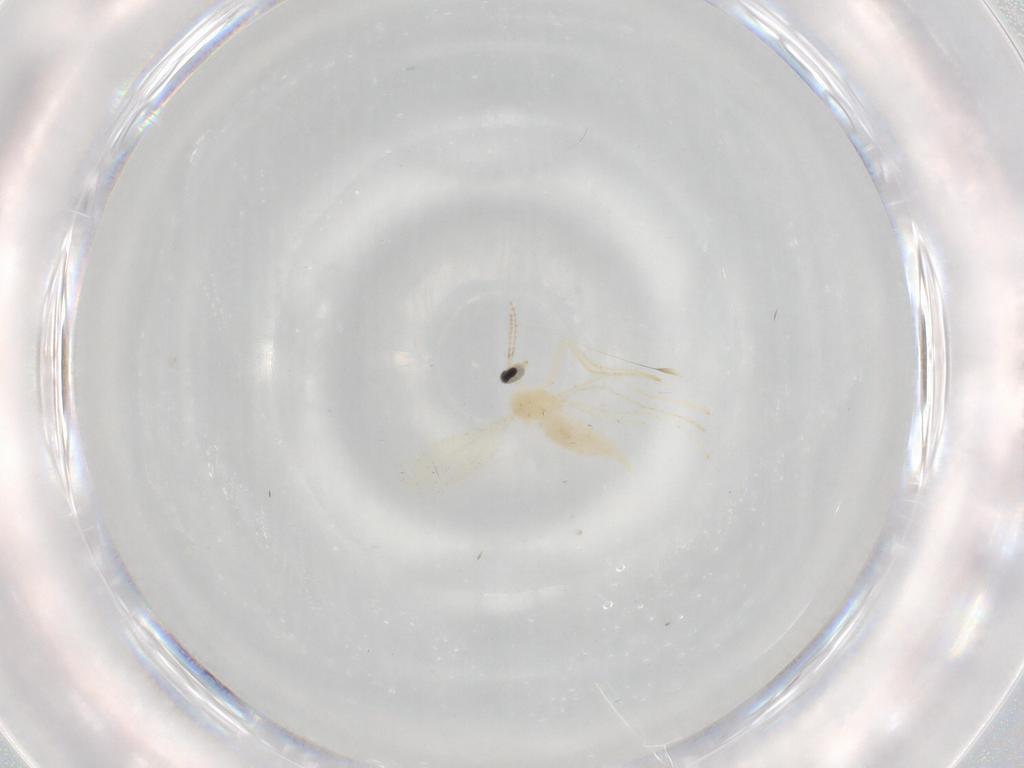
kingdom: Animalia
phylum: Arthropoda
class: Insecta
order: Diptera
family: Cecidomyiidae
